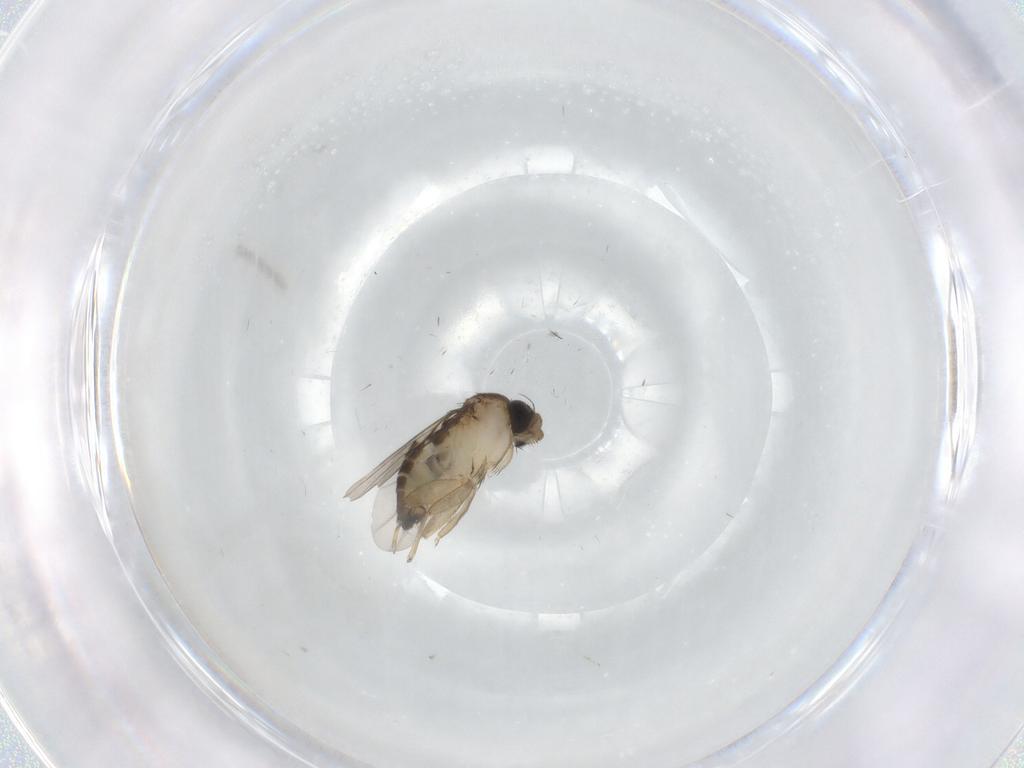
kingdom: Animalia
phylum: Arthropoda
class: Insecta
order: Diptera
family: Phoridae
